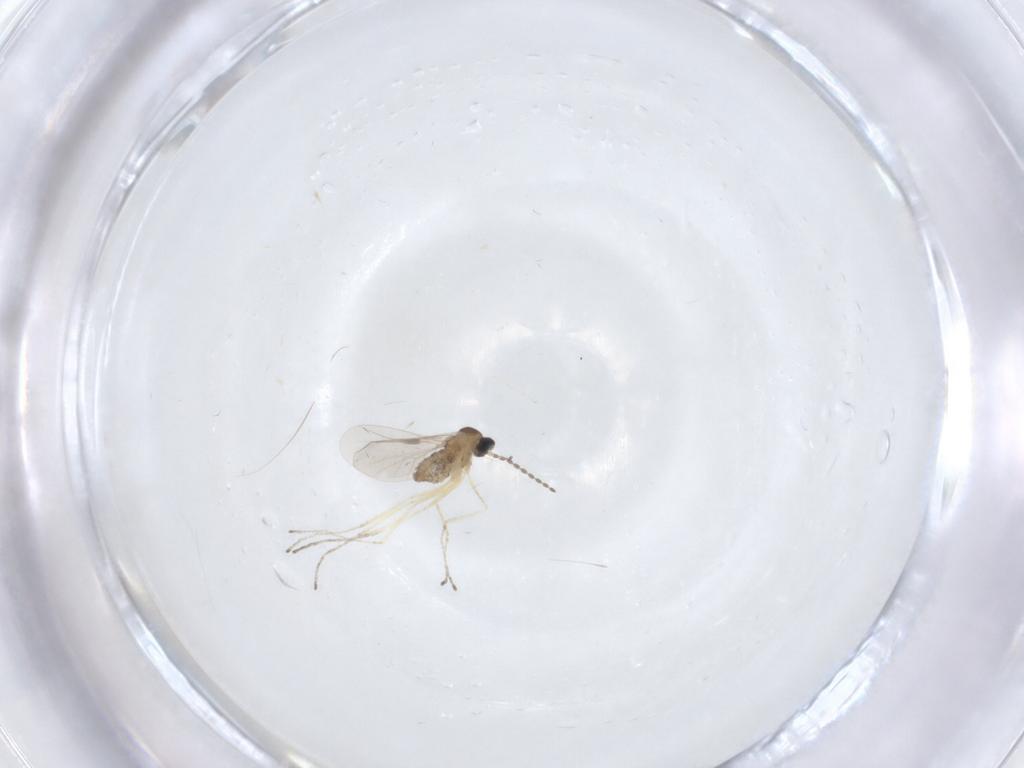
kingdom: Animalia
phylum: Arthropoda
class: Insecta
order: Diptera
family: Cecidomyiidae
